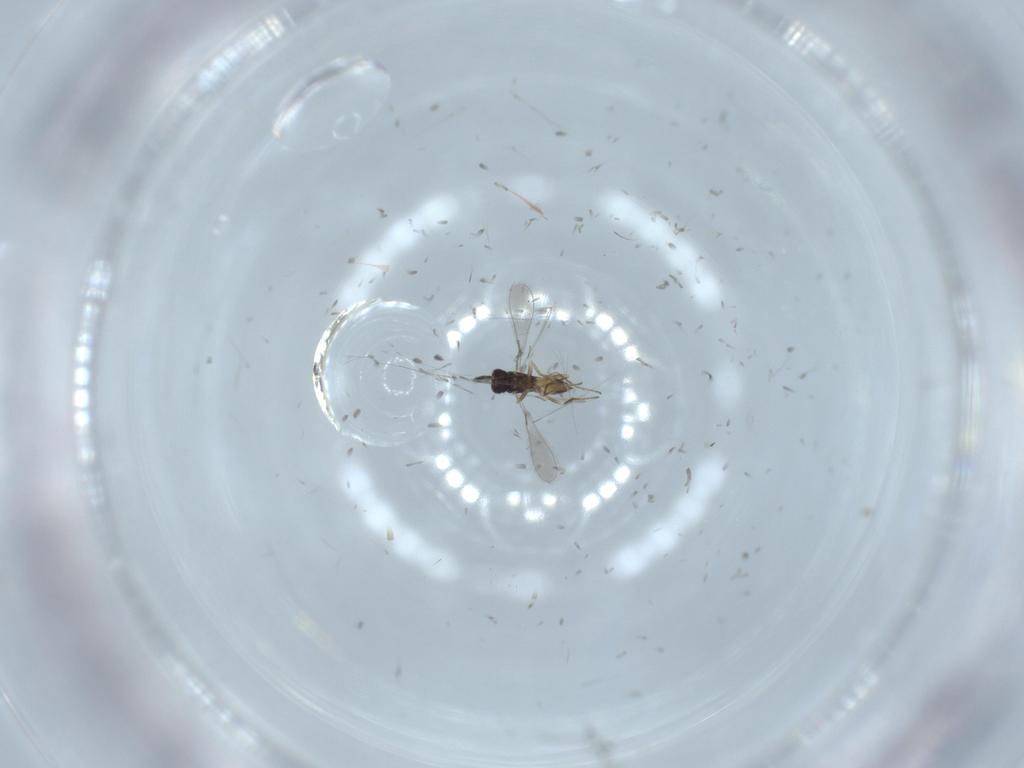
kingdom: Animalia
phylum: Arthropoda
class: Insecta
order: Hymenoptera
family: Mymaridae
